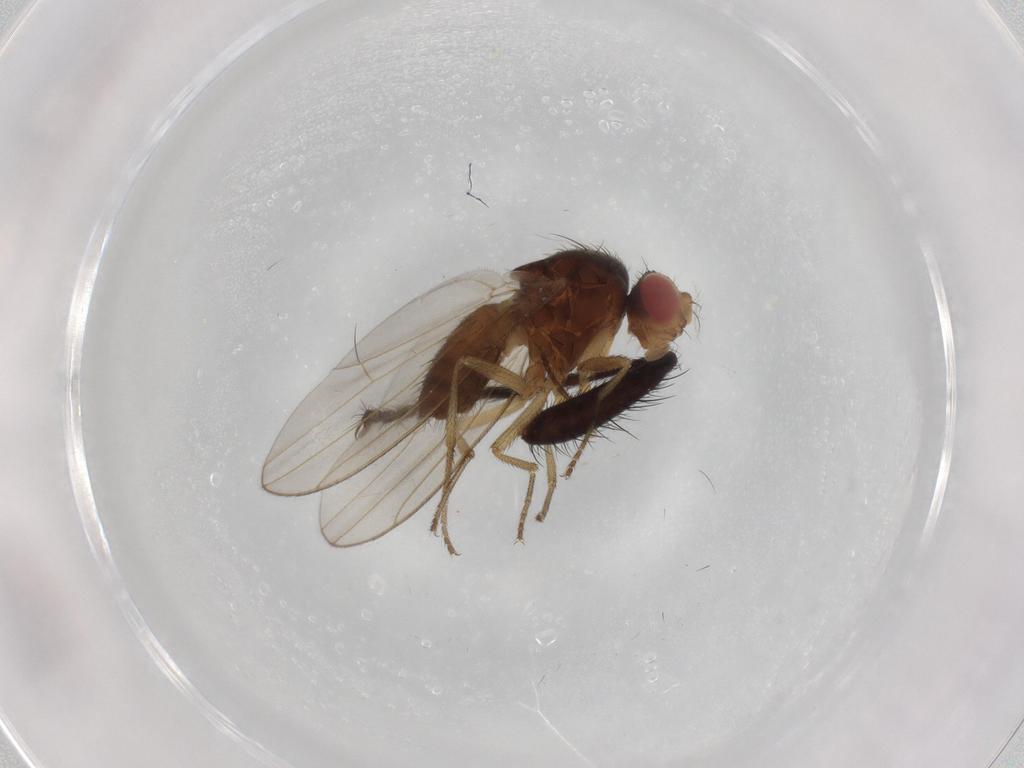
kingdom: Animalia
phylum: Arthropoda
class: Insecta
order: Diptera
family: Drosophilidae
